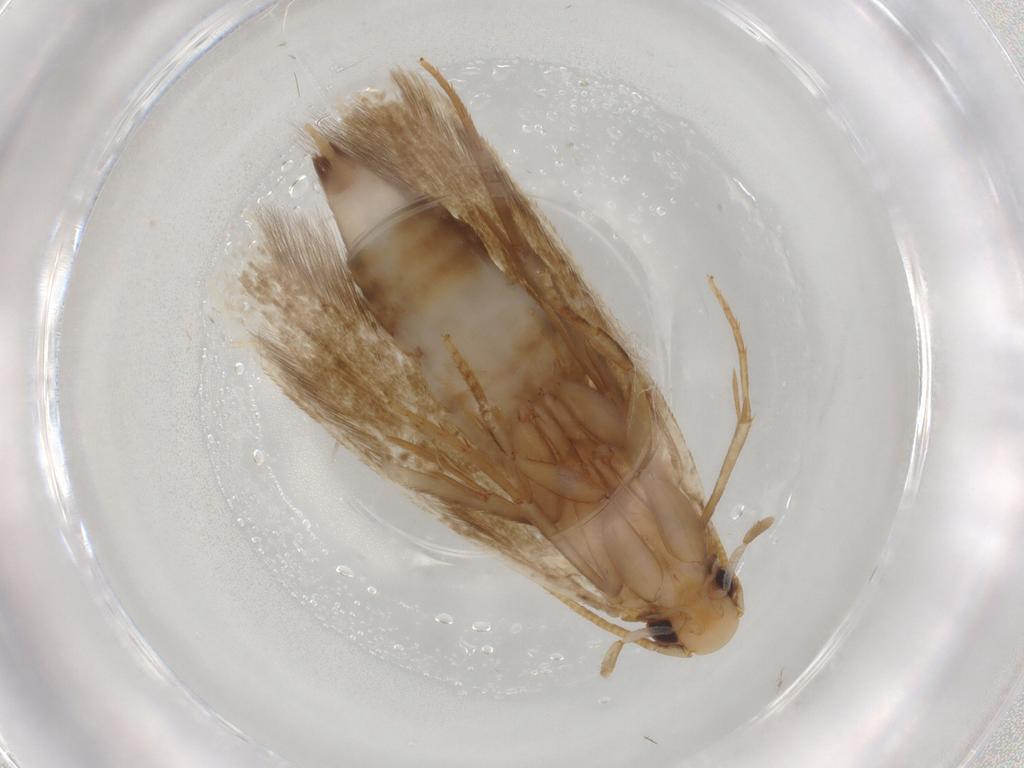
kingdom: Animalia
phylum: Arthropoda
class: Insecta
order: Lepidoptera
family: Tineidae
